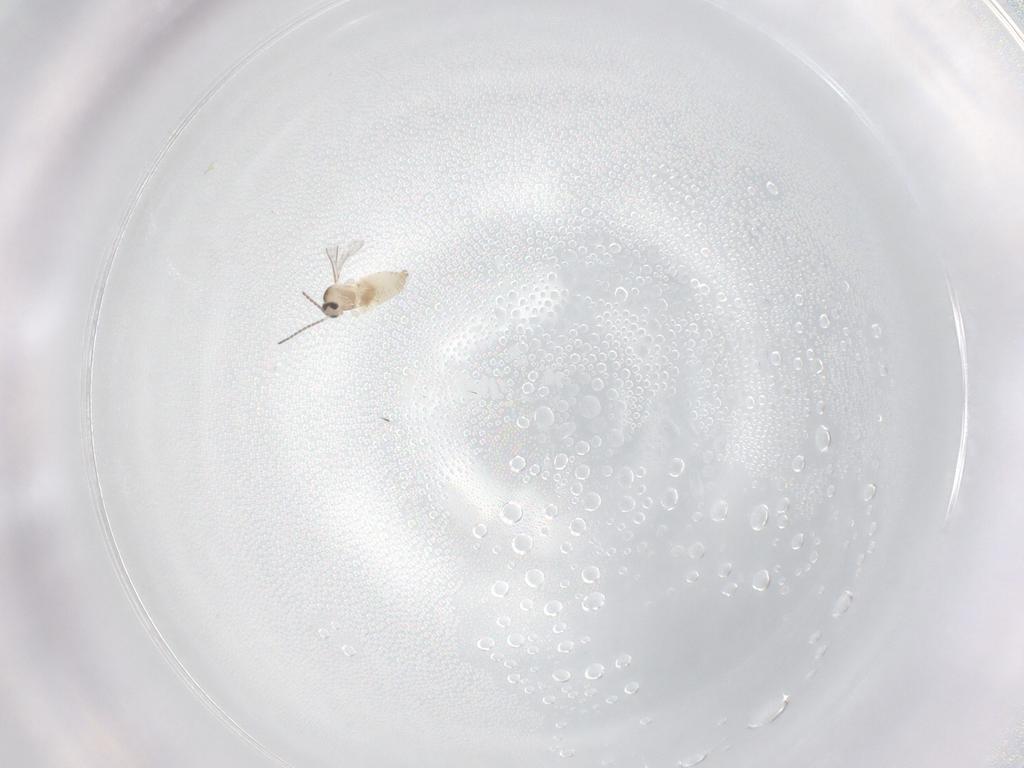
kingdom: Animalia
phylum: Arthropoda
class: Insecta
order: Diptera
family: Cecidomyiidae
